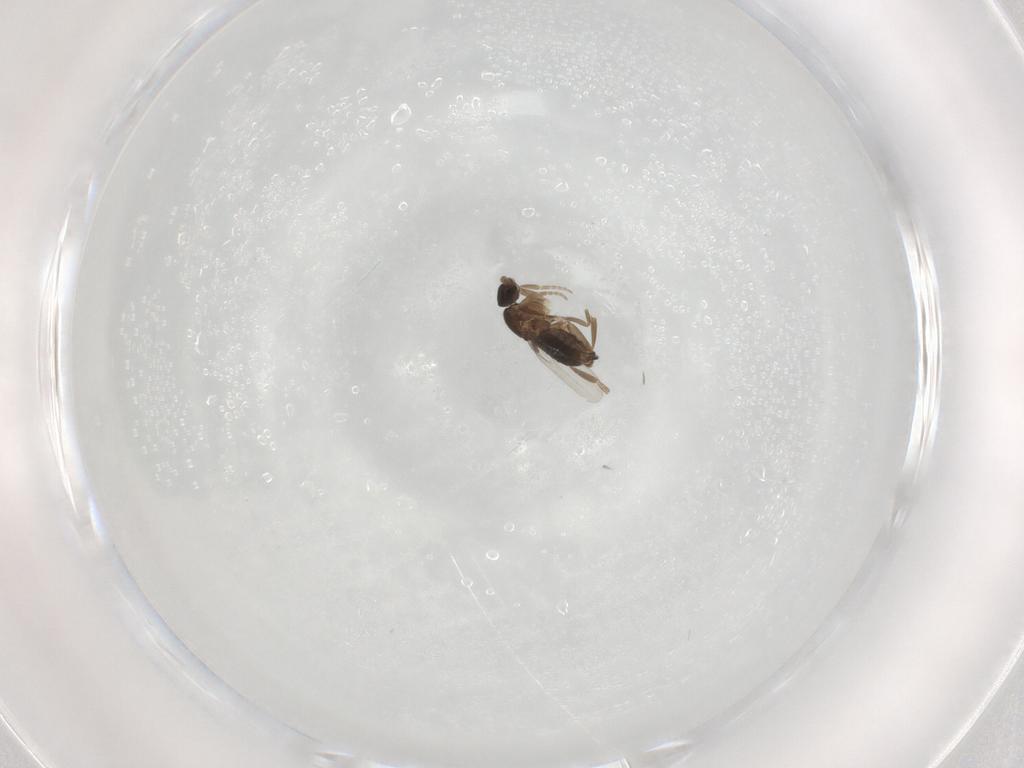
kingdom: Animalia
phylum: Arthropoda
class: Insecta
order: Diptera
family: Phoridae
